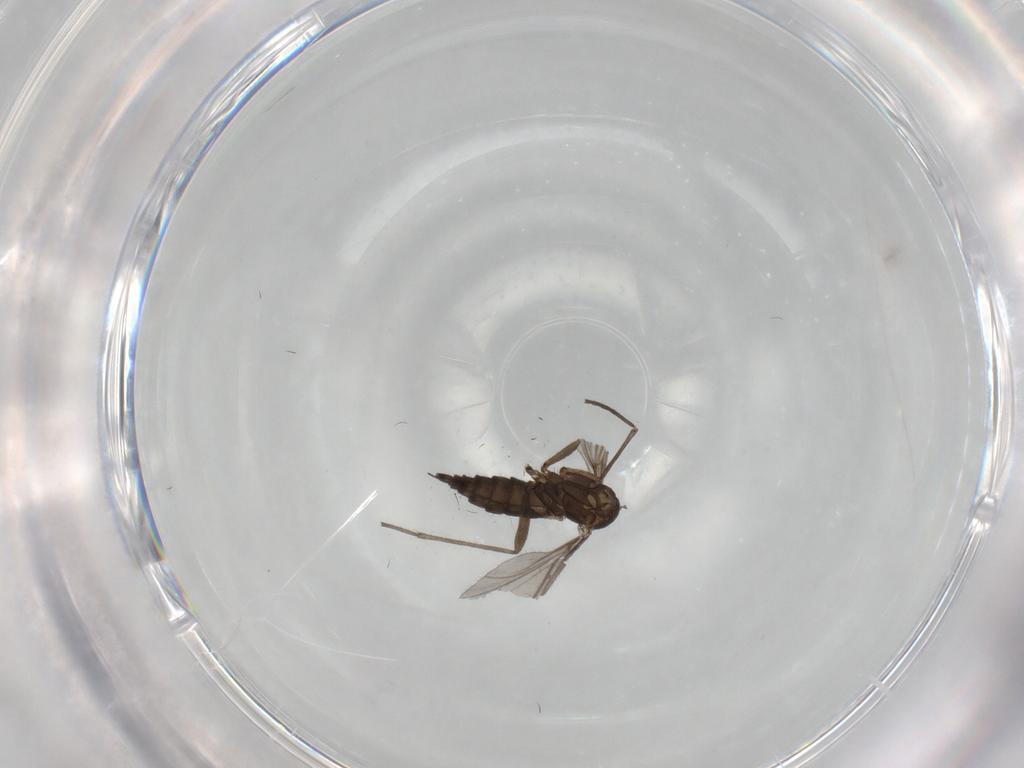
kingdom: Animalia
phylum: Arthropoda
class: Insecta
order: Diptera
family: Sciaridae
